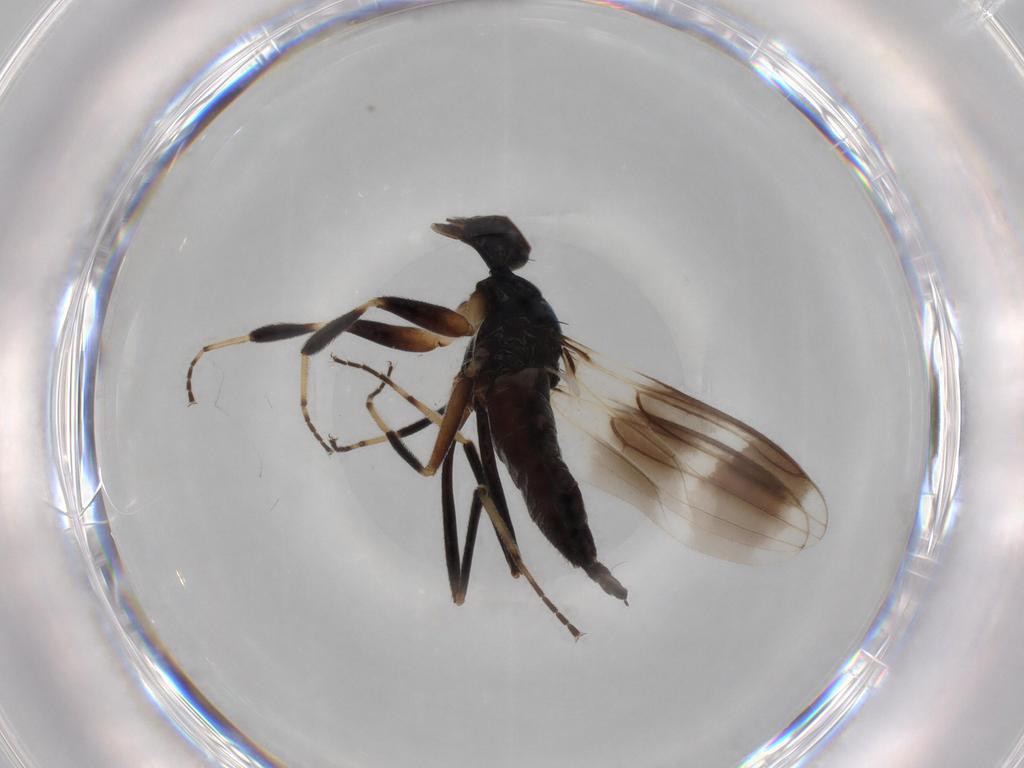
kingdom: Animalia
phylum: Arthropoda
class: Insecta
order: Diptera
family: Hybotidae
